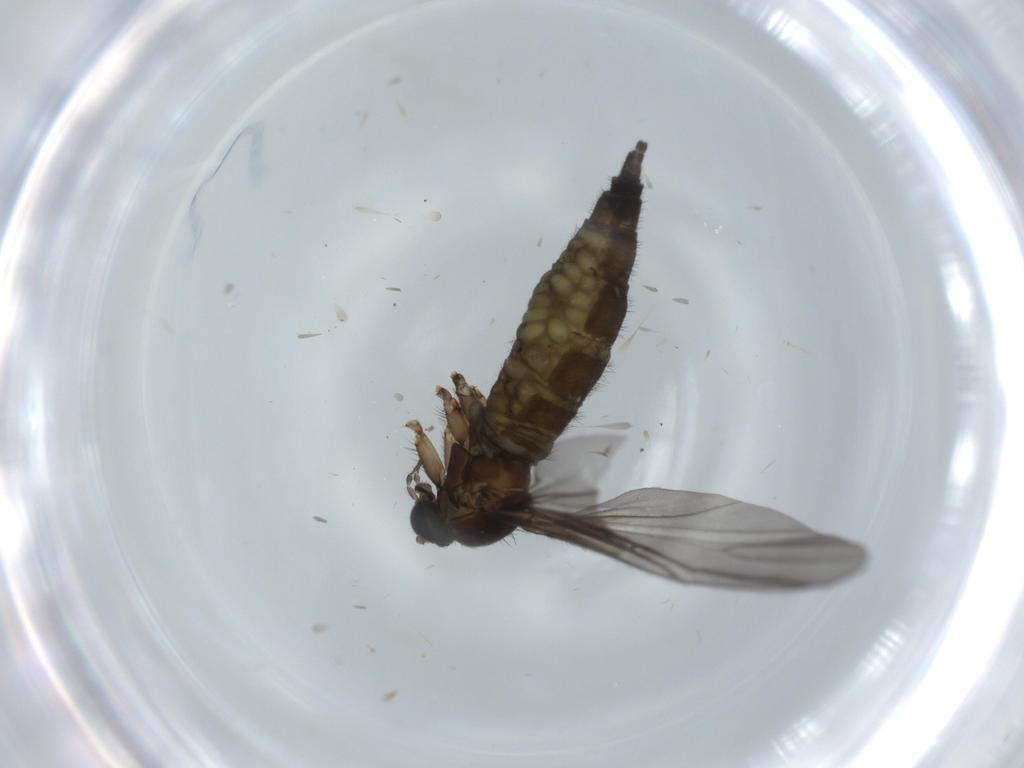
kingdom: Animalia
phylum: Arthropoda
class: Insecta
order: Diptera
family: Sciaridae
